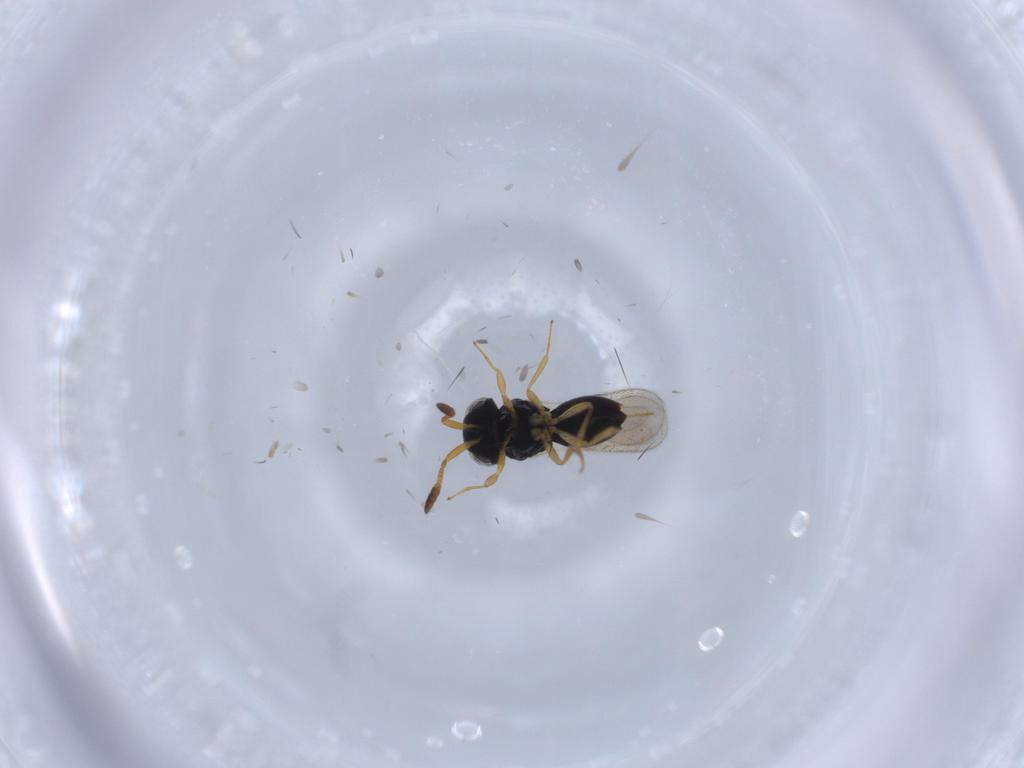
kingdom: Animalia
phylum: Arthropoda
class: Insecta
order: Hymenoptera
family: Scelionidae
